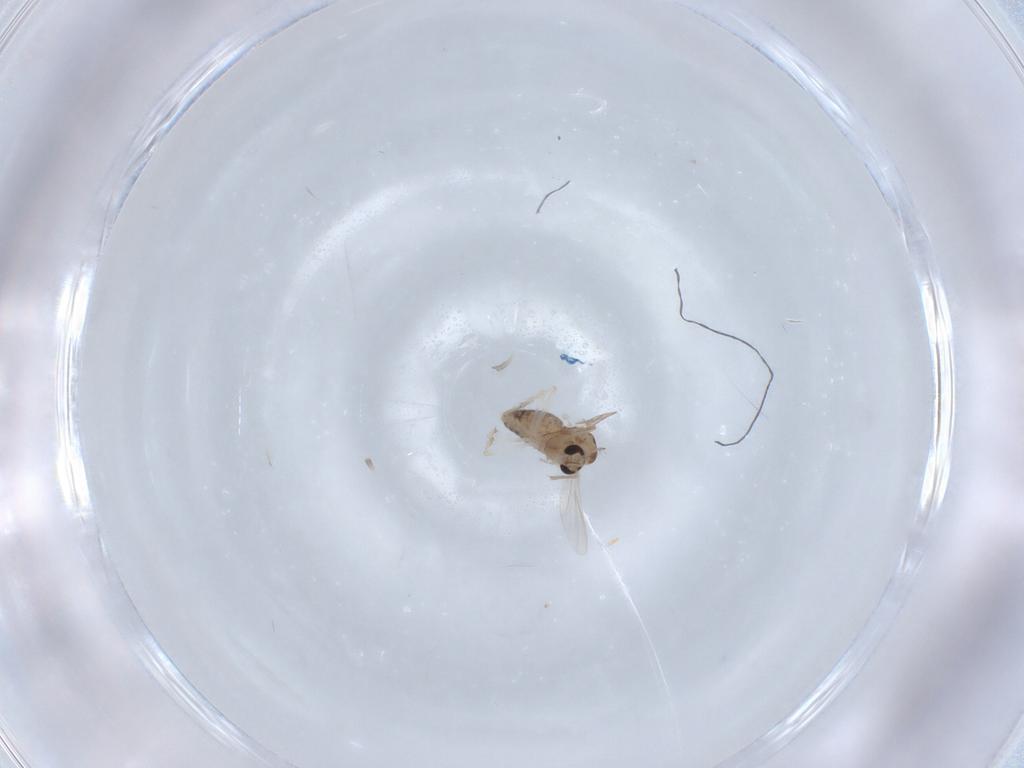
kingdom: Animalia
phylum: Arthropoda
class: Insecta
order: Diptera
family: Chironomidae
